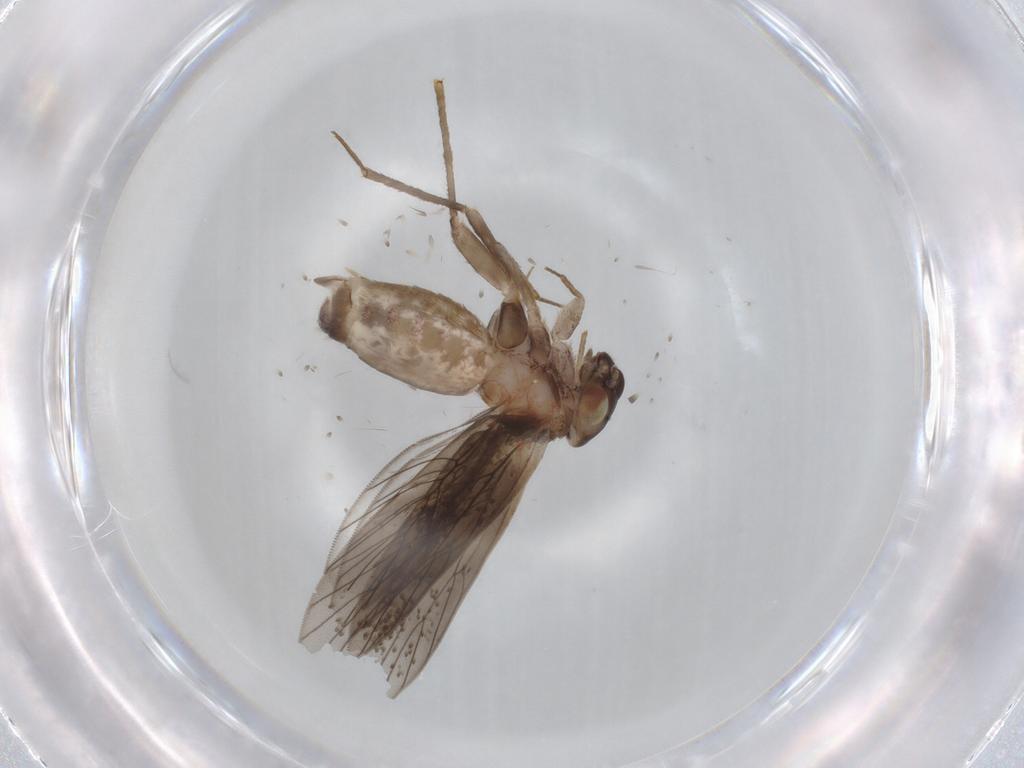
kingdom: Animalia
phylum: Arthropoda
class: Insecta
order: Psocodea
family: Lepidopsocidae
